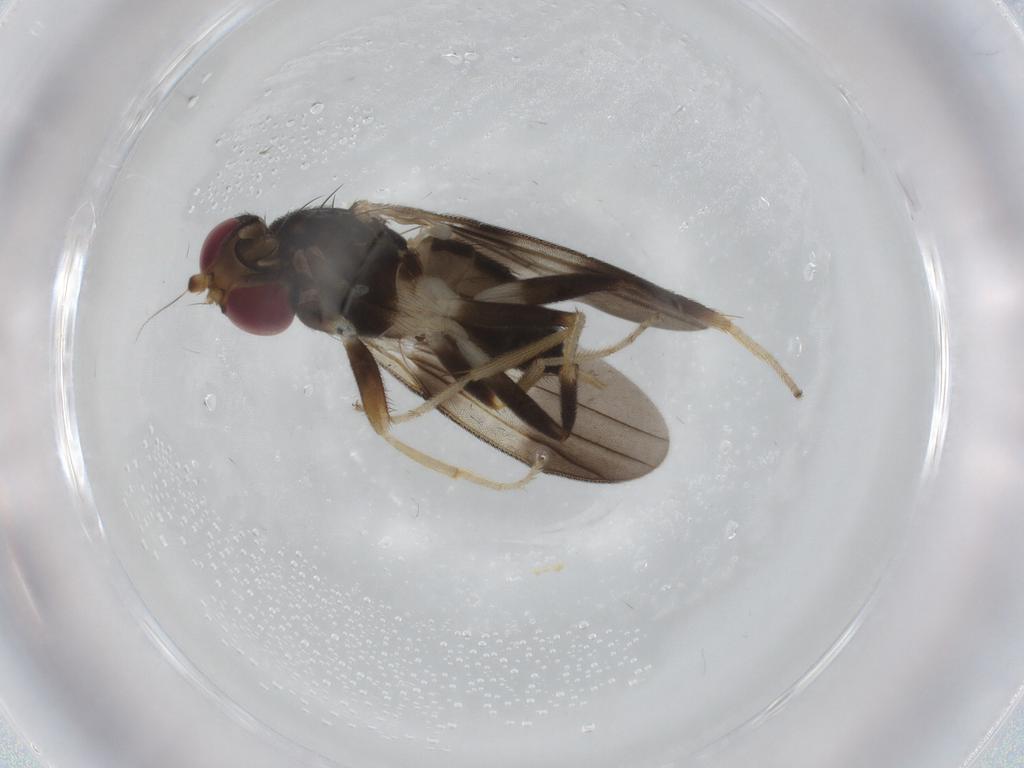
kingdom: Animalia
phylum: Arthropoda
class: Insecta
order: Diptera
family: Clusiidae
